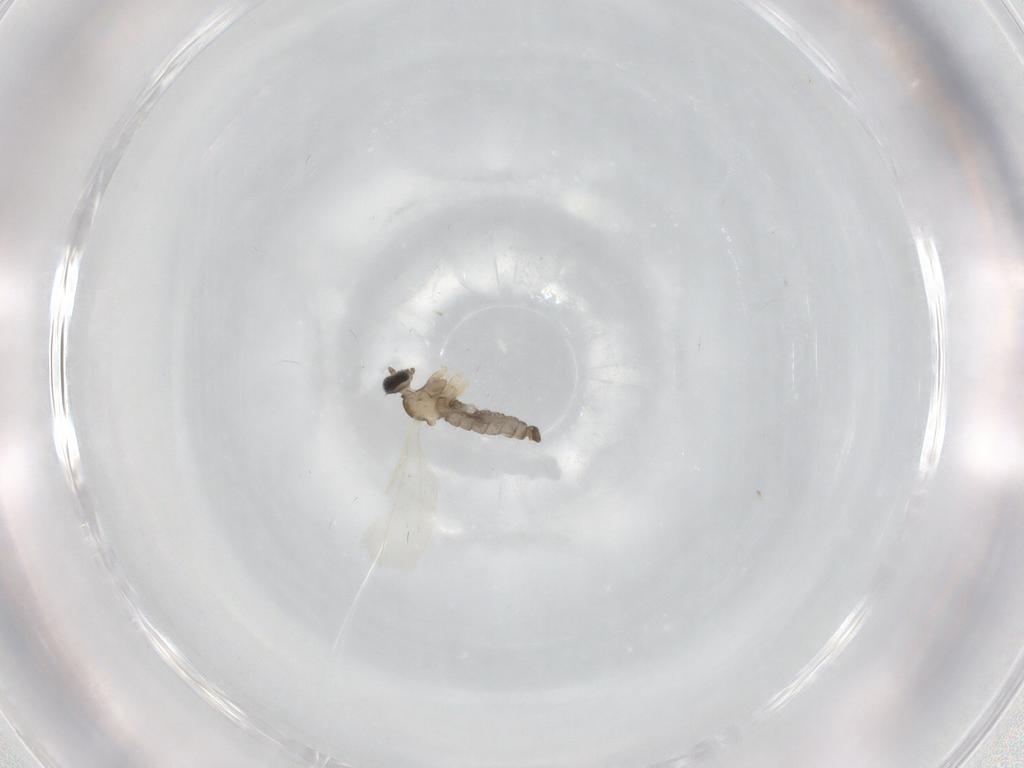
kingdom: Animalia
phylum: Arthropoda
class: Insecta
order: Diptera
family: Cecidomyiidae
